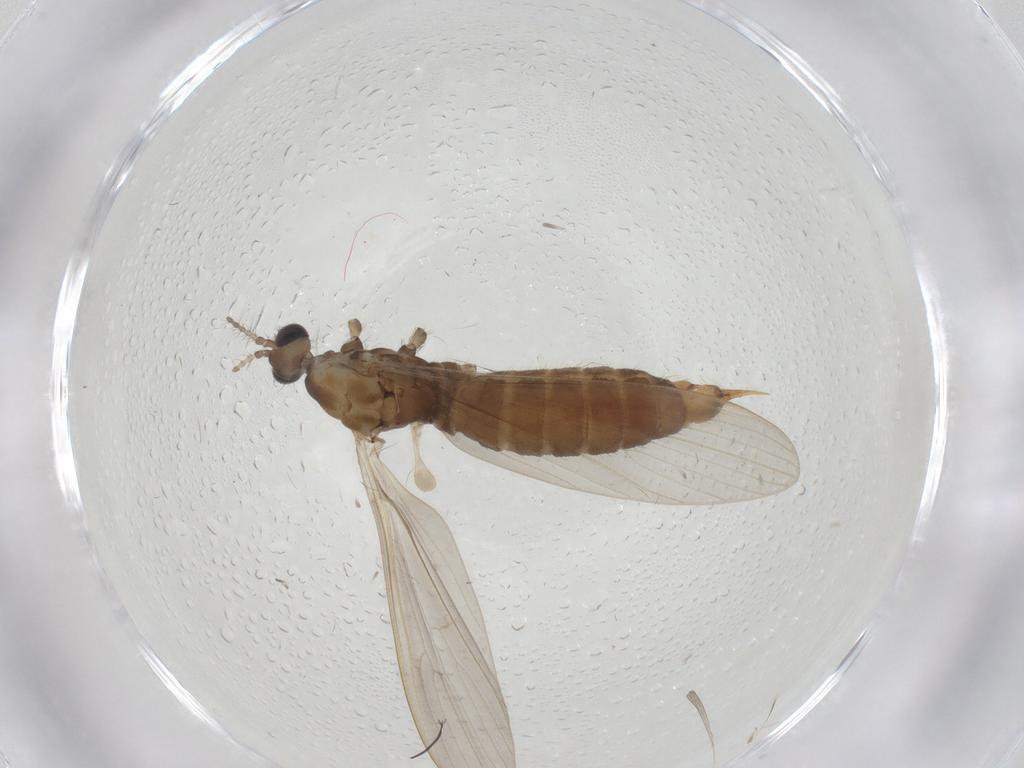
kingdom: Animalia
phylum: Arthropoda
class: Insecta
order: Diptera
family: Limoniidae
